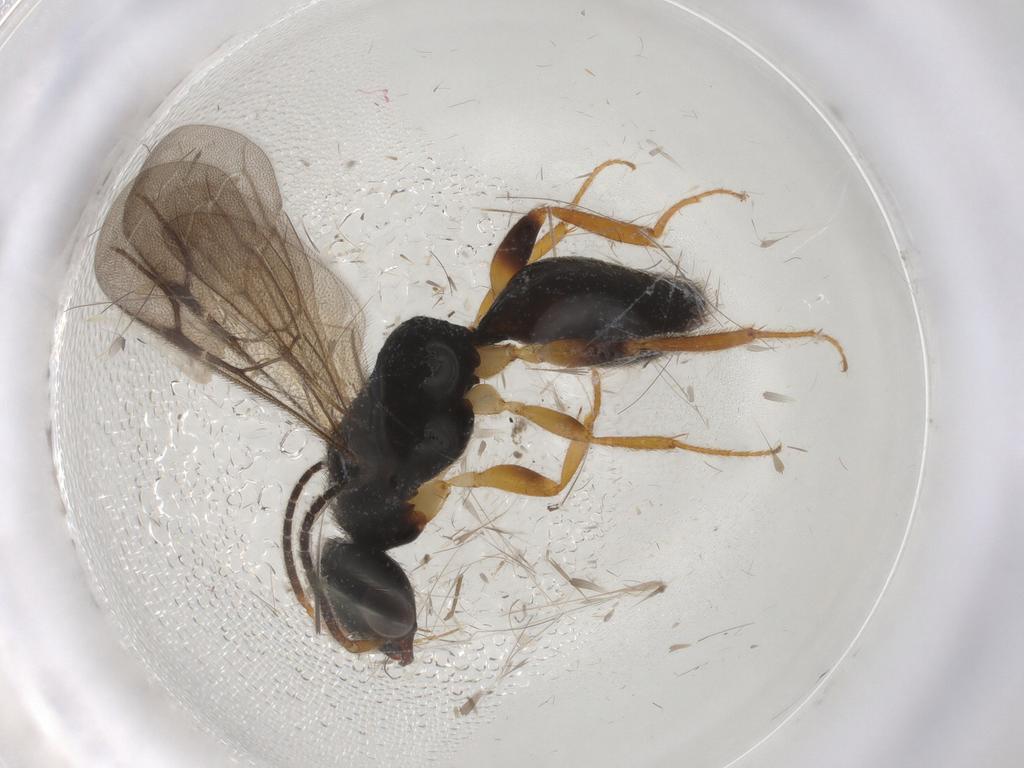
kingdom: Animalia
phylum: Arthropoda
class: Insecta
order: Hymenoptera
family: Bethylidae
